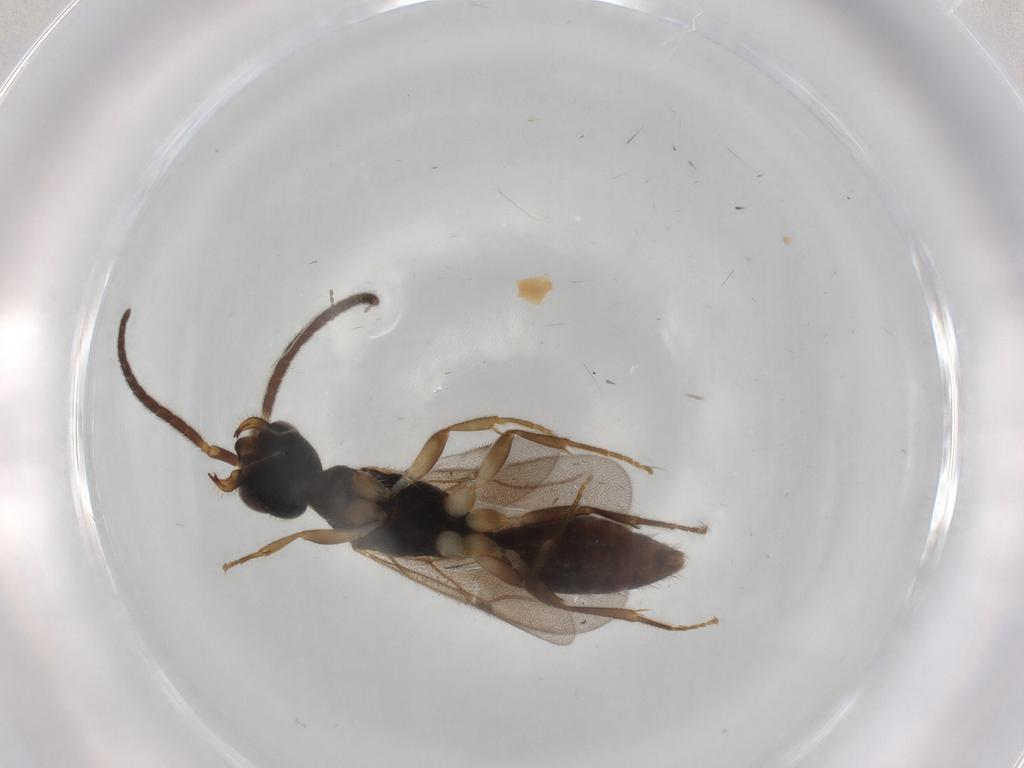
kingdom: Animalia
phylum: Arthropoda
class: Insecta
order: Hymenoptera
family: Bethylidae
